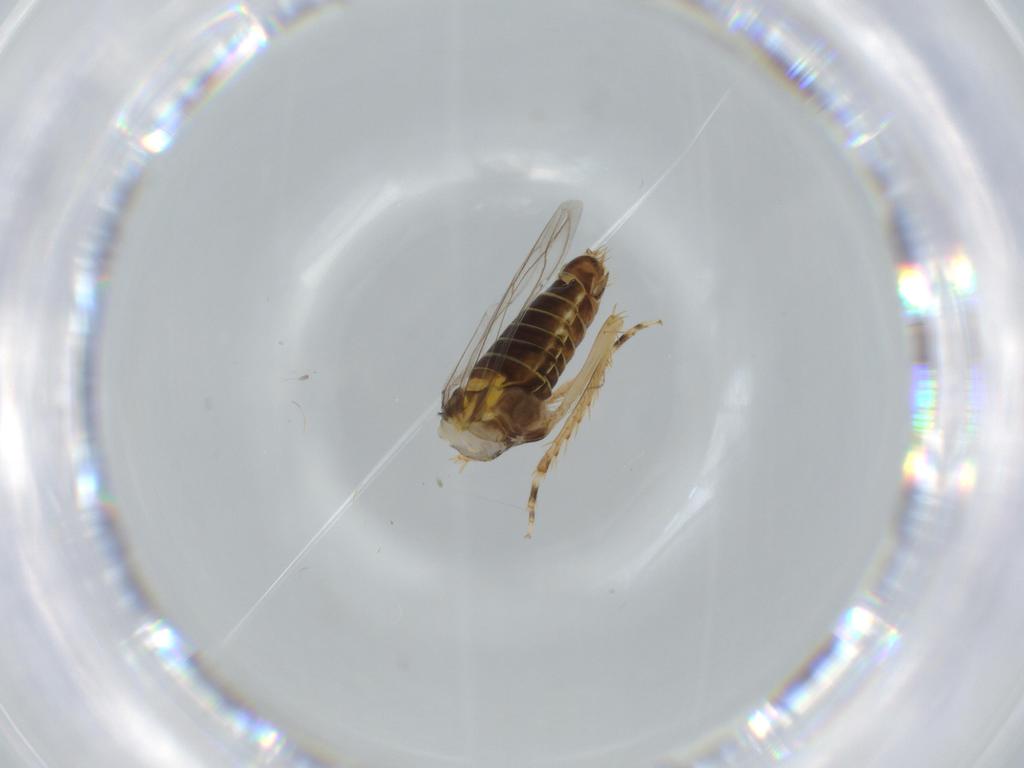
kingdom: Animalia
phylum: Arthropoda
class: Insecta
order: Hemiptera
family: Cicadellidae
